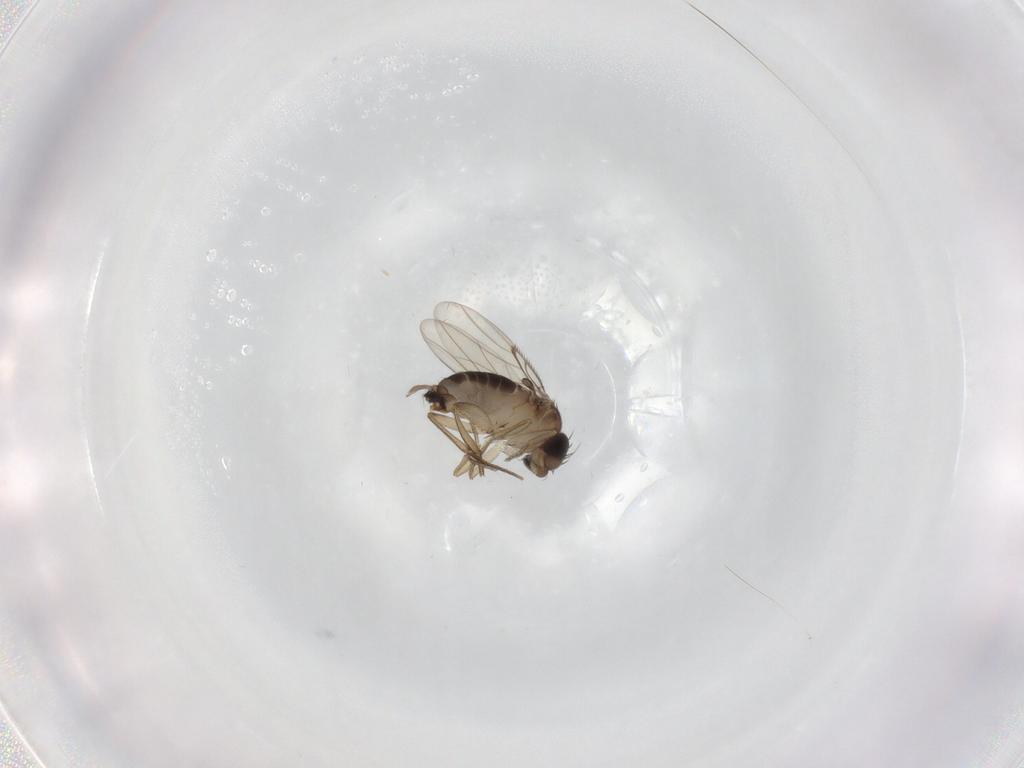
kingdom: Animalia
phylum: Arthropoda
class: Insecta
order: Diptera
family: Phoridae
